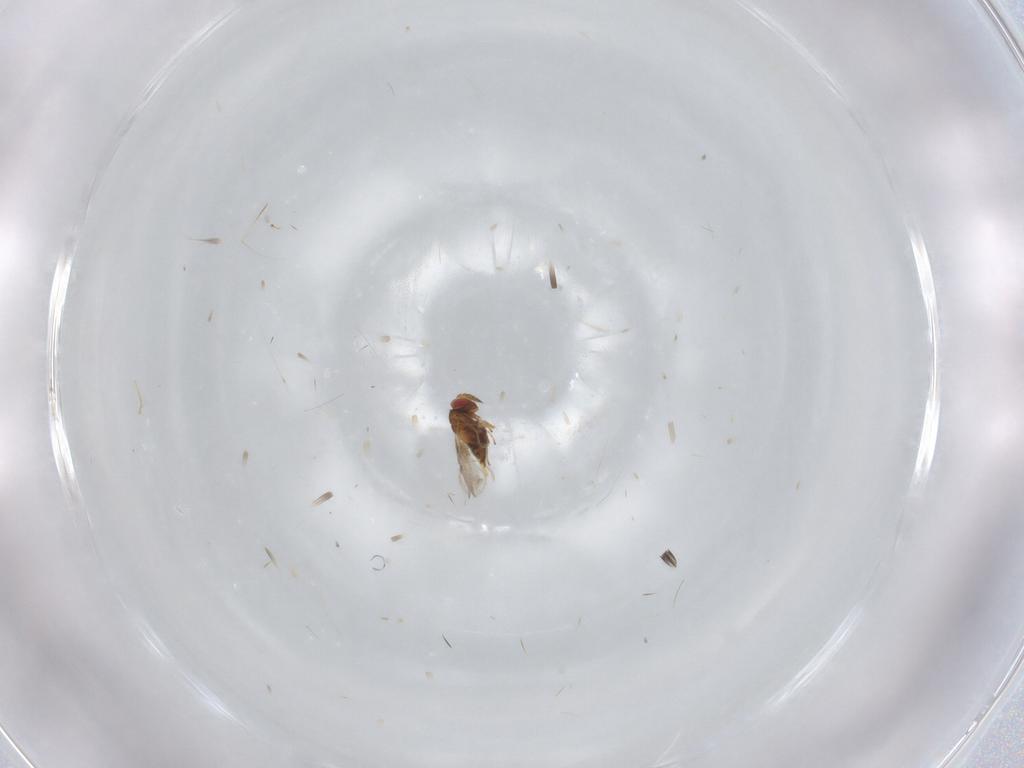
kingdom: Animalia
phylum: Arthropoda
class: Insecta
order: Hymenoptera
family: Trichogrammatidae
